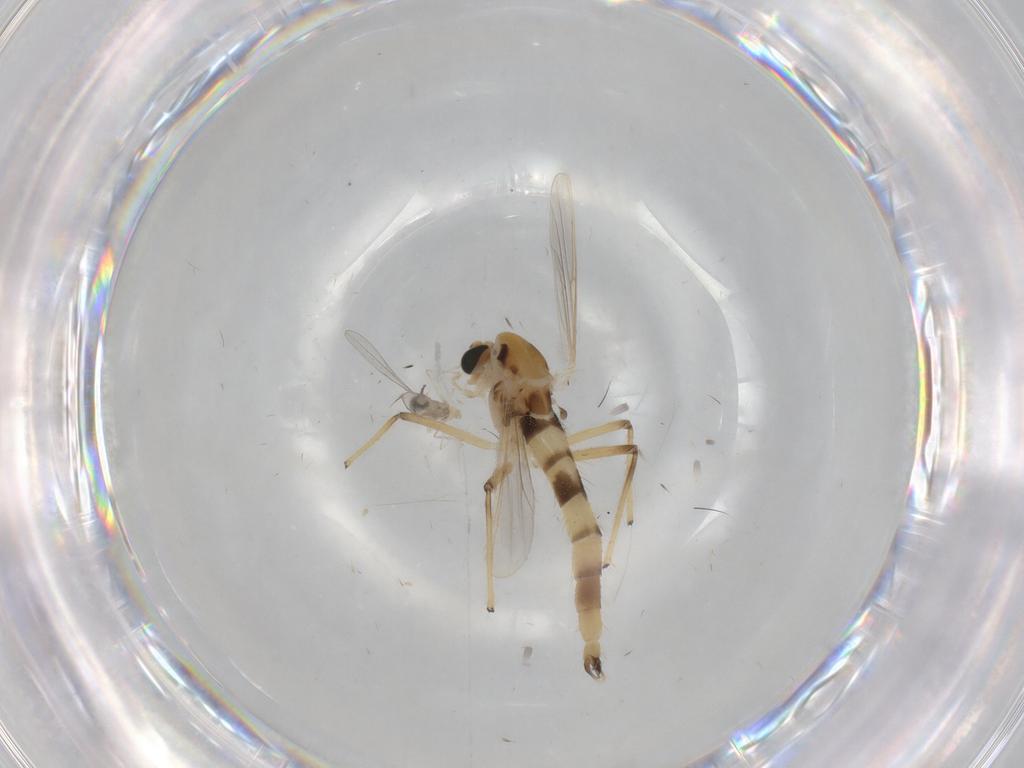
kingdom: Animalia
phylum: Arthropoda
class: Insecta
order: Diptera
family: Chironomidae
